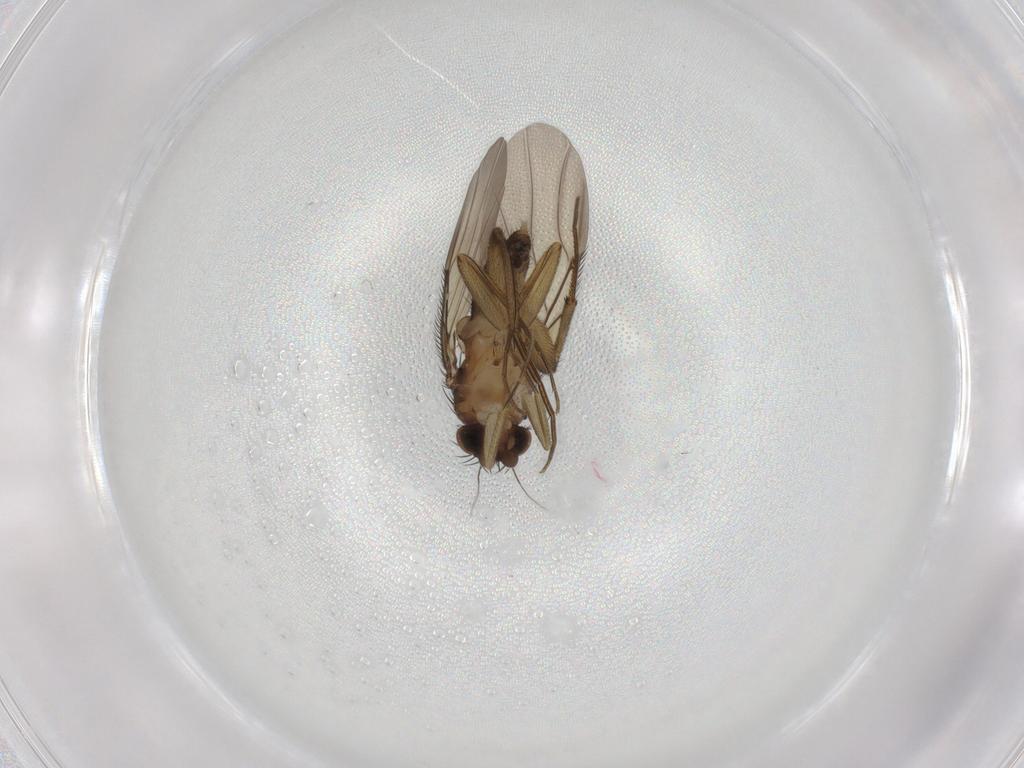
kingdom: Animalia
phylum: Arthropoda
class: Insecta
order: Diptera
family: Phoridae
